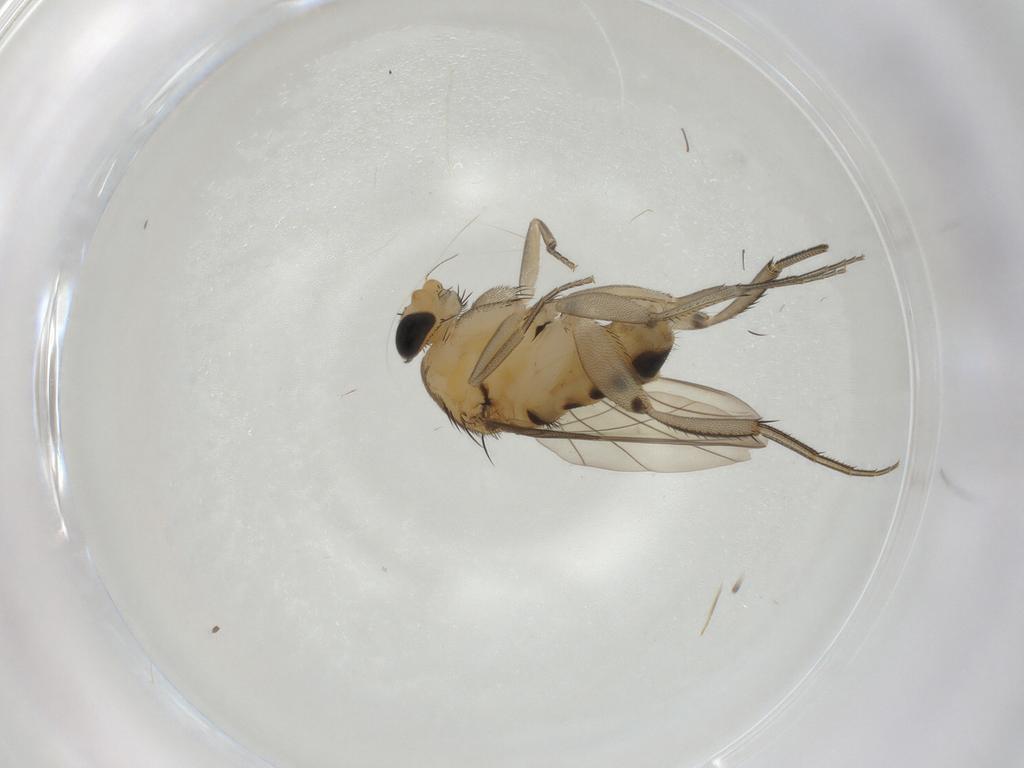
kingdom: Animalia
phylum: Arthropoda
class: Insecta
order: Diptera
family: Phoridae
